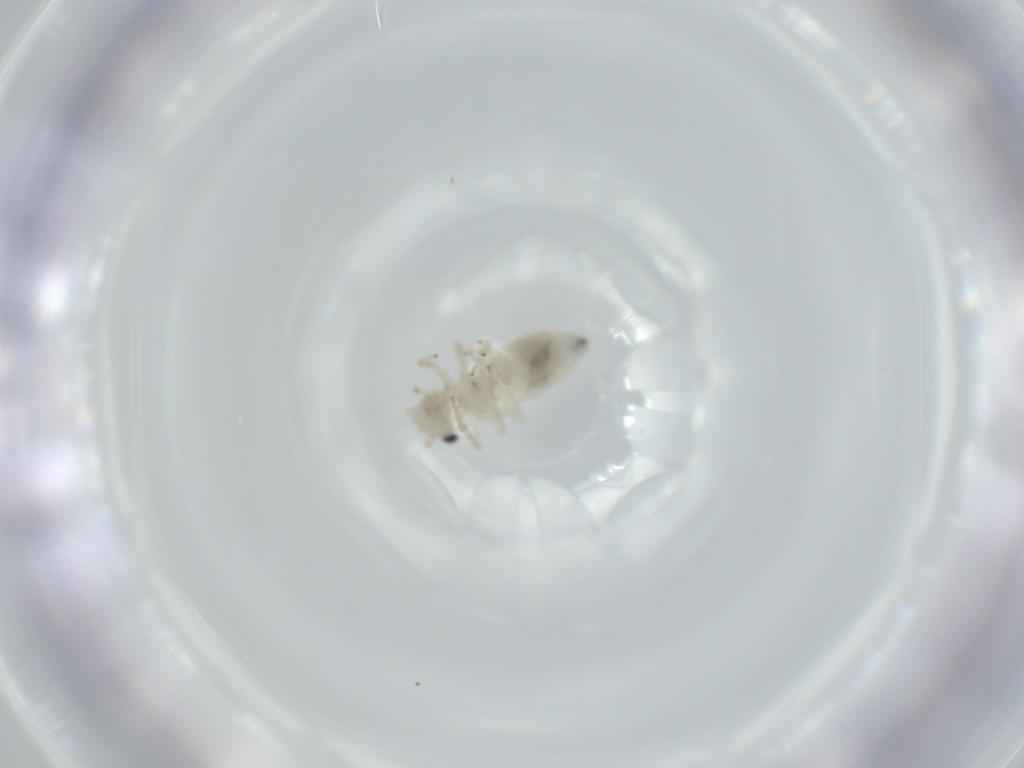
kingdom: Animalia
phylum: Arthropoda
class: Insecta
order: Psocodea
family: Caeciliusidae
